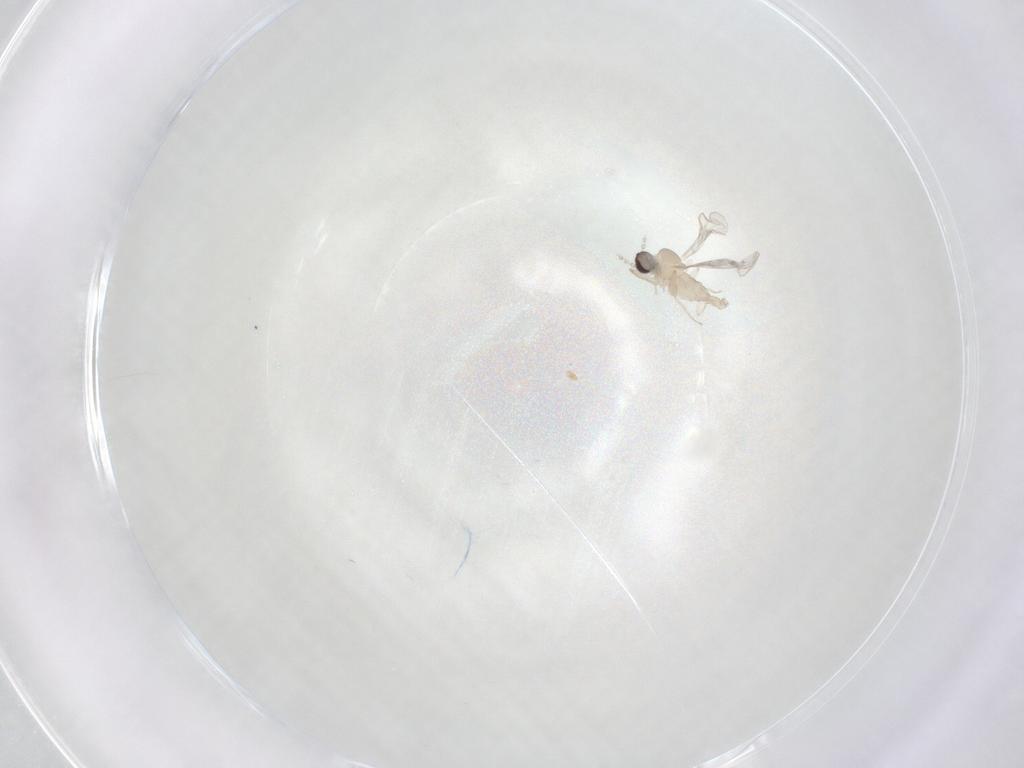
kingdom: Animalia
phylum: Arthropoda
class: Insecta
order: Diptera
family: Cecidomyiidae
